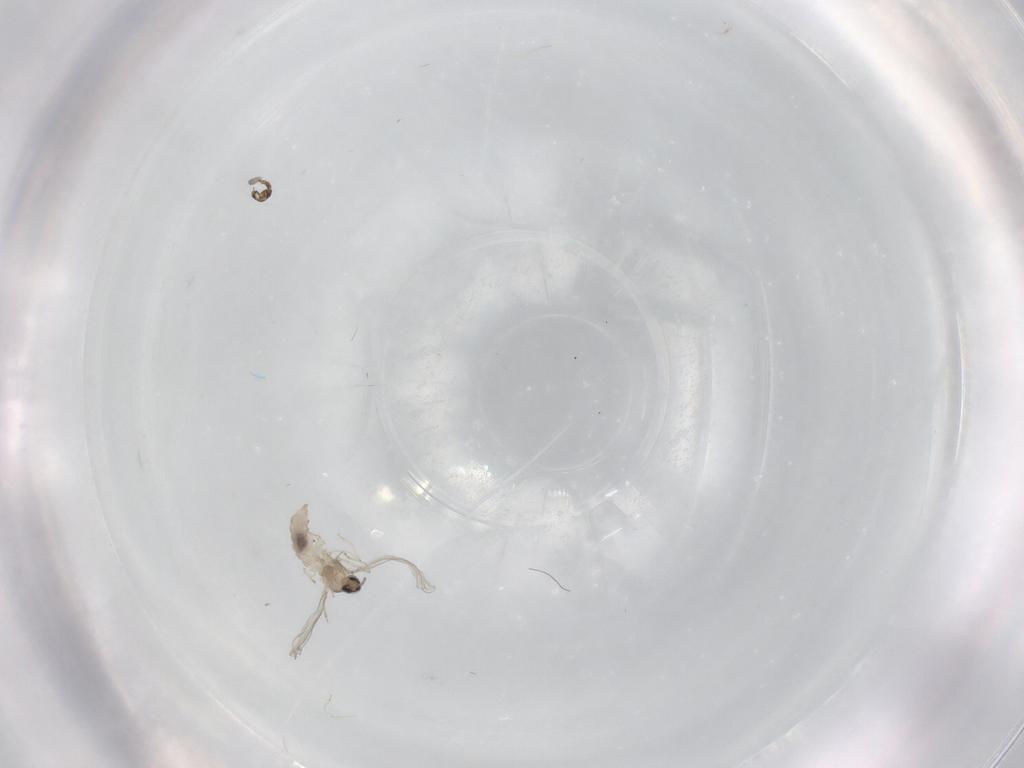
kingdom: Animalia
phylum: Arthropoda
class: Insecta
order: Diptera
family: Cecidomyiidae
